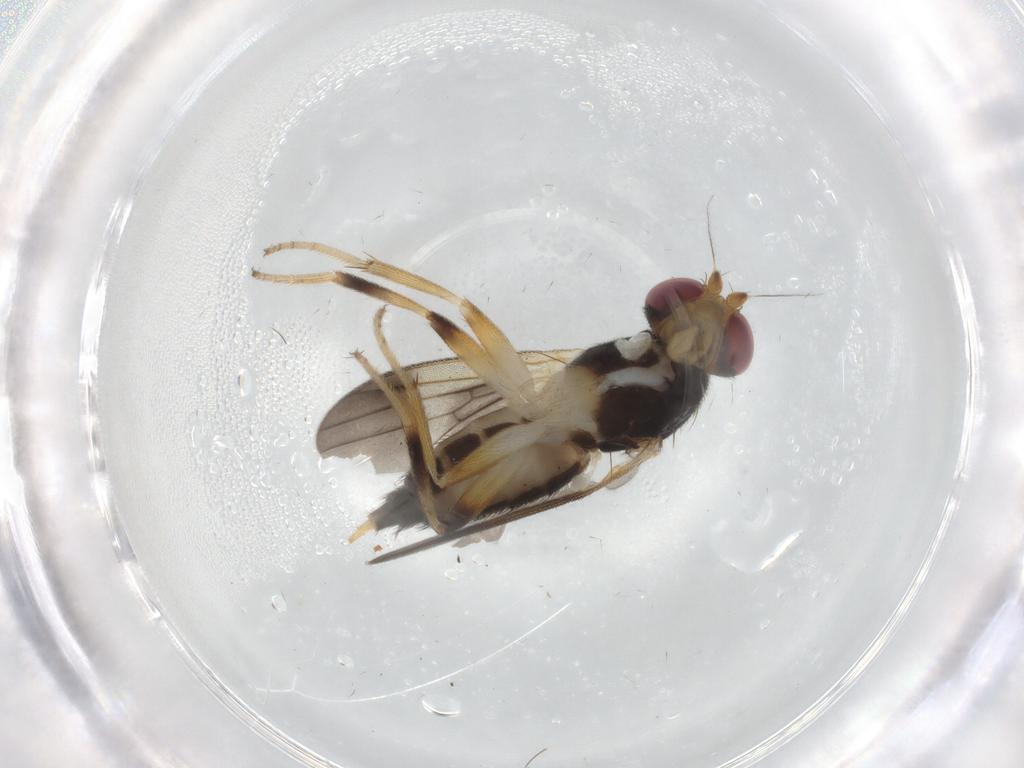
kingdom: Animalia
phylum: Arthropoda
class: Insecta
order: Diptera
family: Clusiidae
